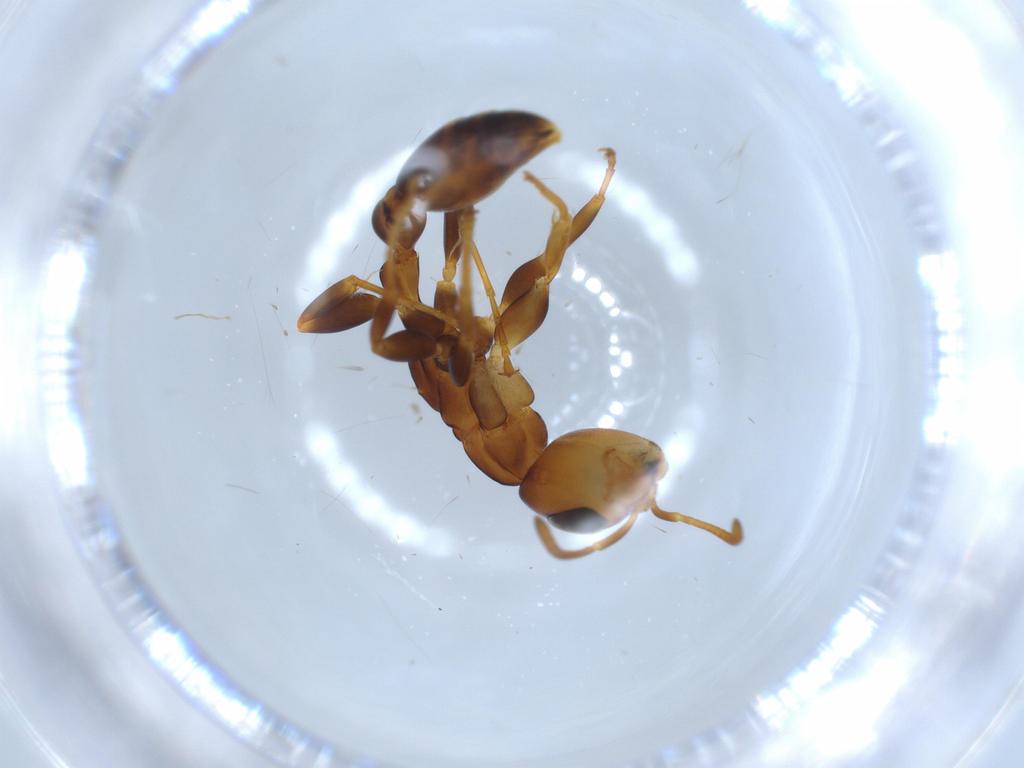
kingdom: Animalia
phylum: Arthropoda
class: Insecta
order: Hymenoptera
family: Formicidae
